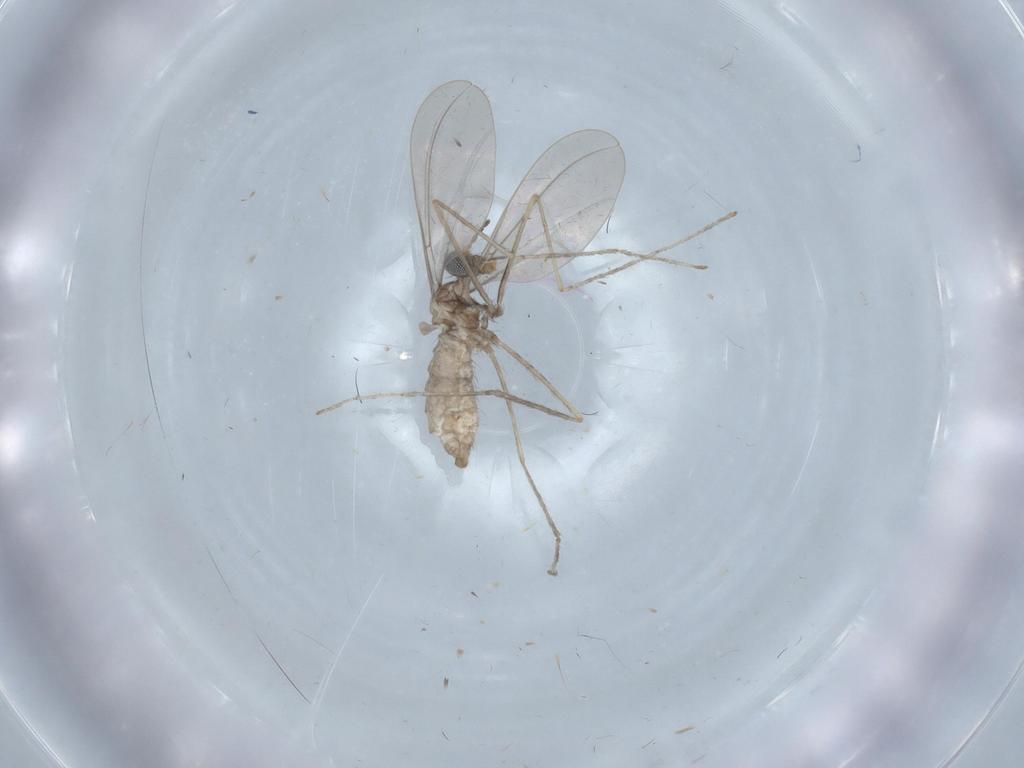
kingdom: Animalia
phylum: Arthropoda
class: Insecta
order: Diptera
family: Cecidomyiidae
